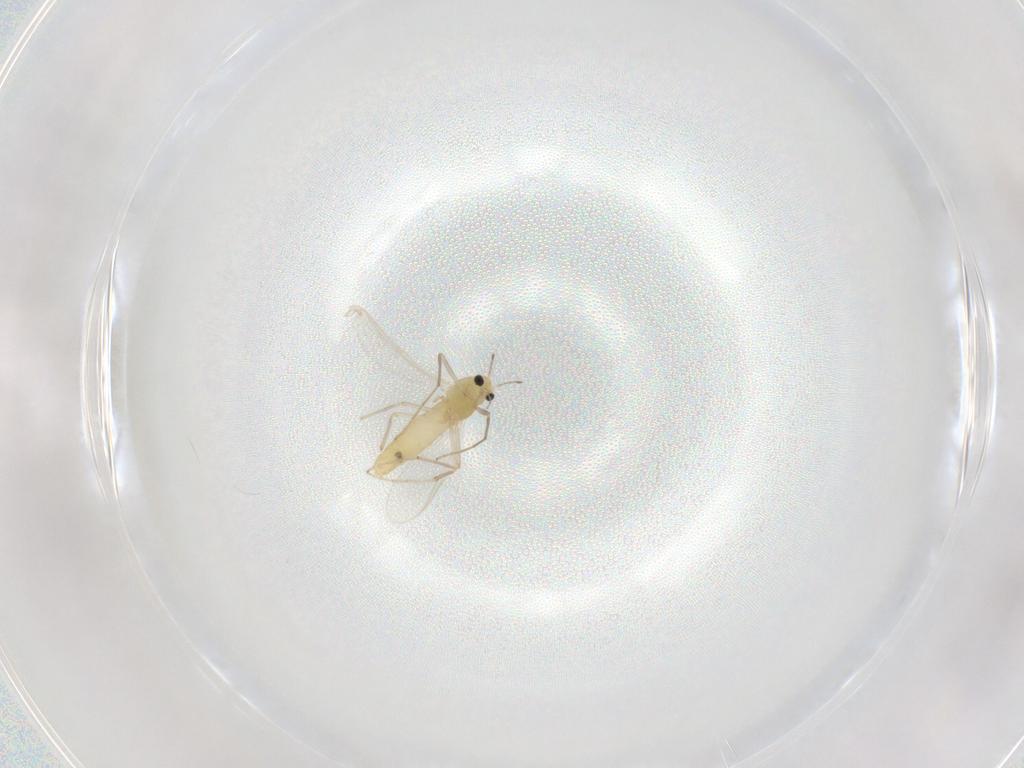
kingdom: Animalia
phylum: Arthropoda
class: Insecta
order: Diptera
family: Chironomidae
